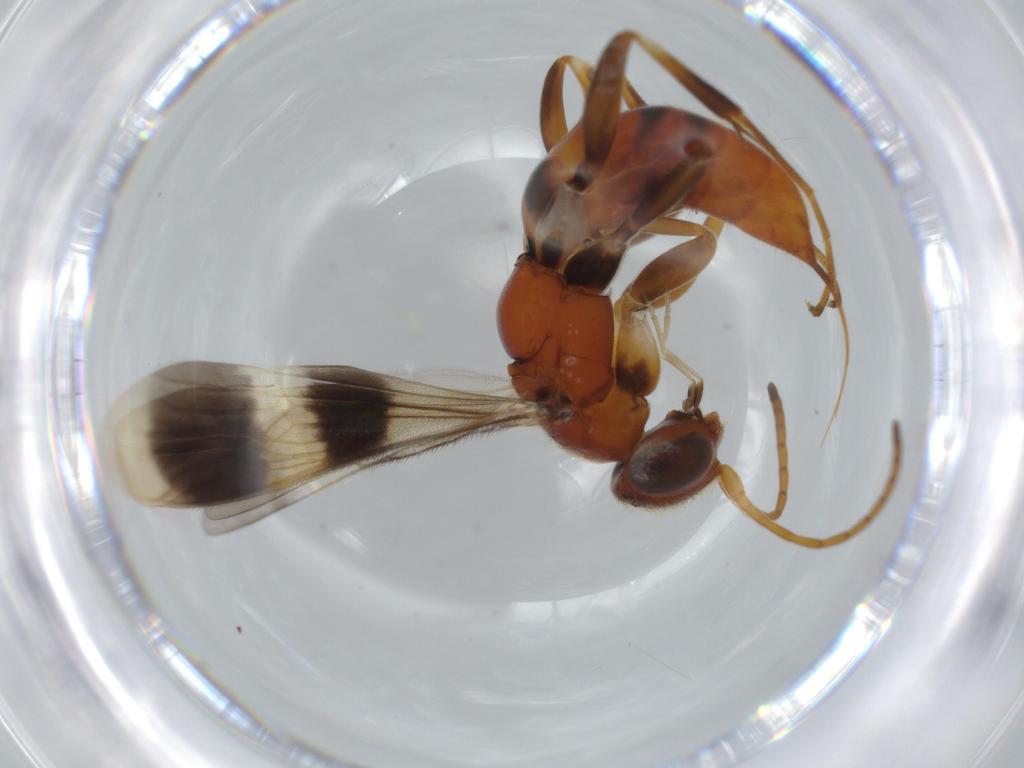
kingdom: Animalia
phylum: Arthropoda
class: Insecta
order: Hymenoptera
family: Pompilidae
